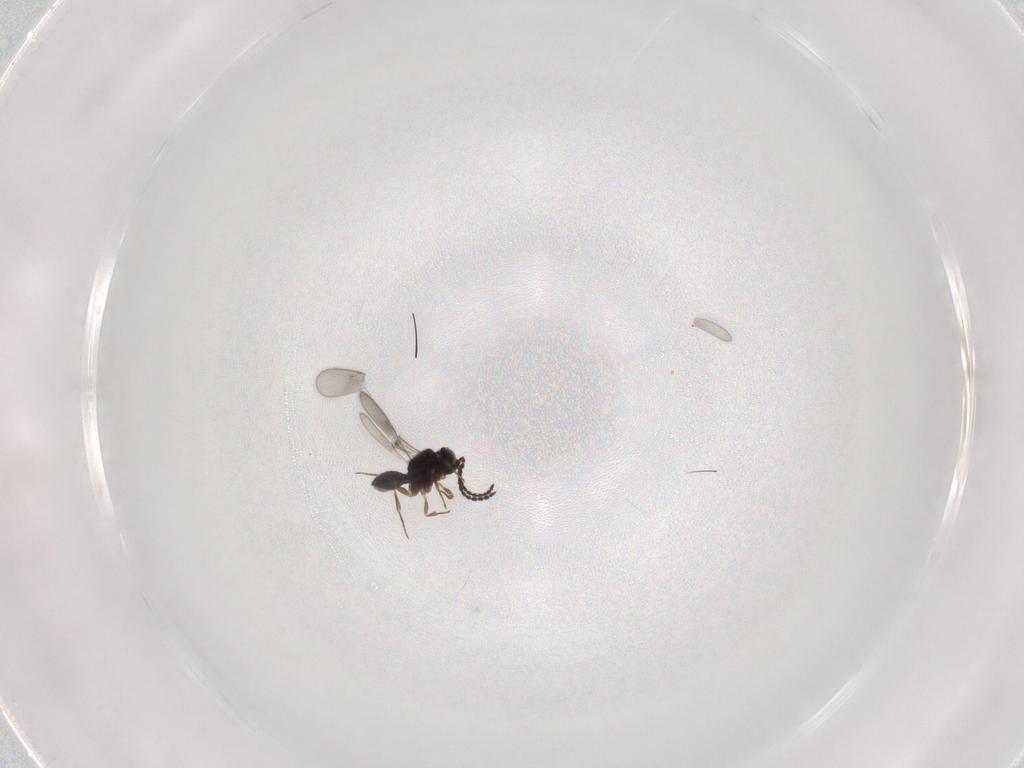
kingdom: Animalia
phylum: Arthropoda
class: Insecta
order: Hymenoptera
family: Scelionidae
